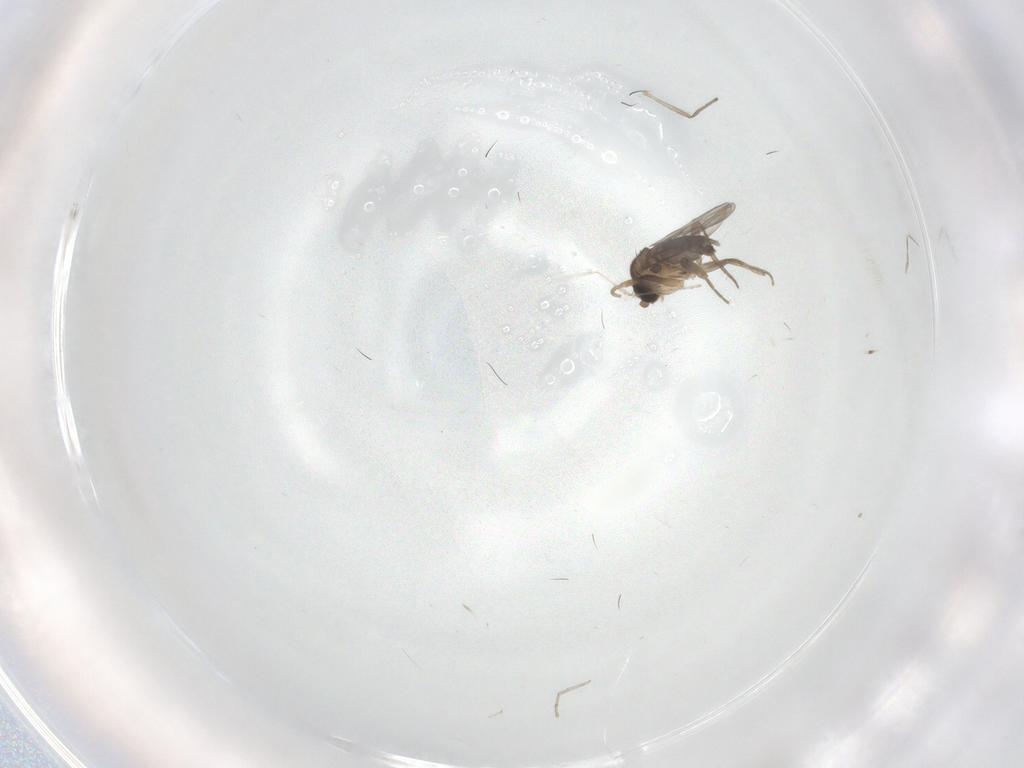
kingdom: Animalia
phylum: Arthropoda
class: Insecta
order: Diptera
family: Phoridae
